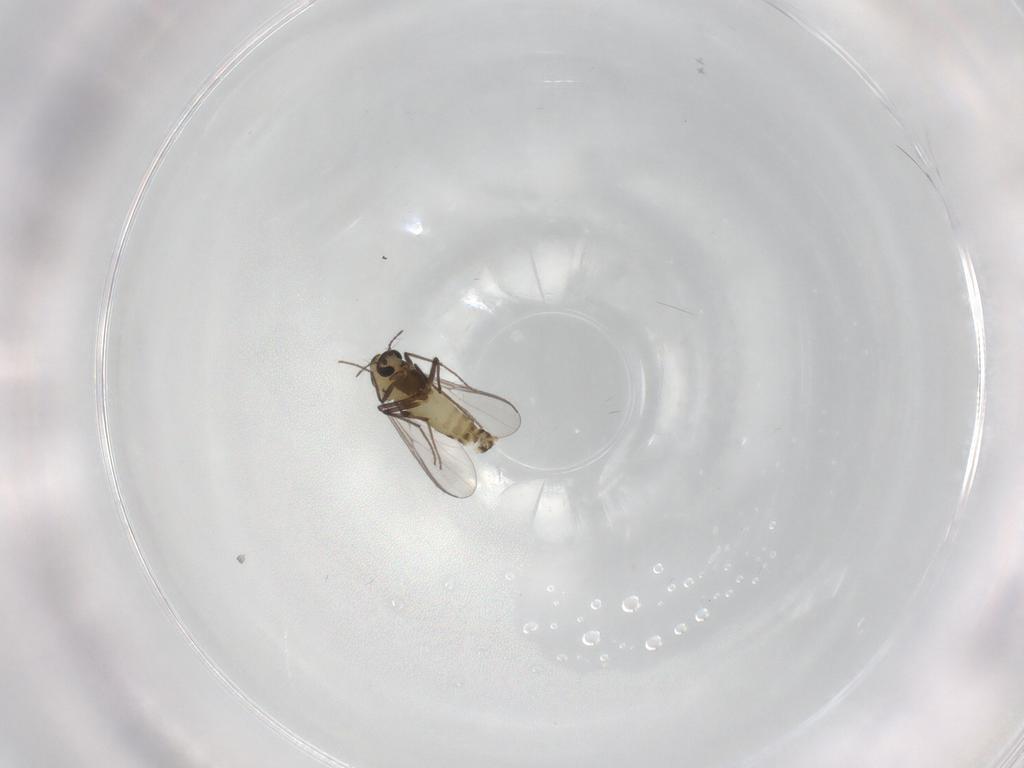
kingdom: Animalia
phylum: Arthropoda
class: Insecta
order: Diptera
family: Chironomidae
